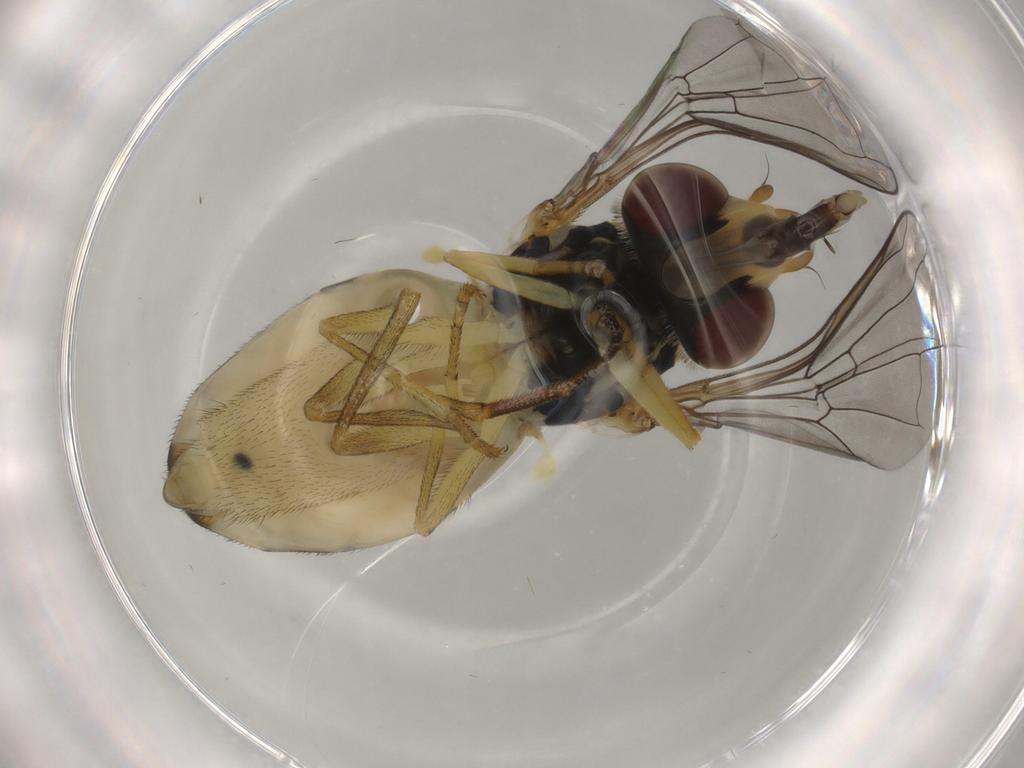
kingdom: Animalia
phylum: Arthropoda
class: Insecta
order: Diptera
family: Syrphidae
